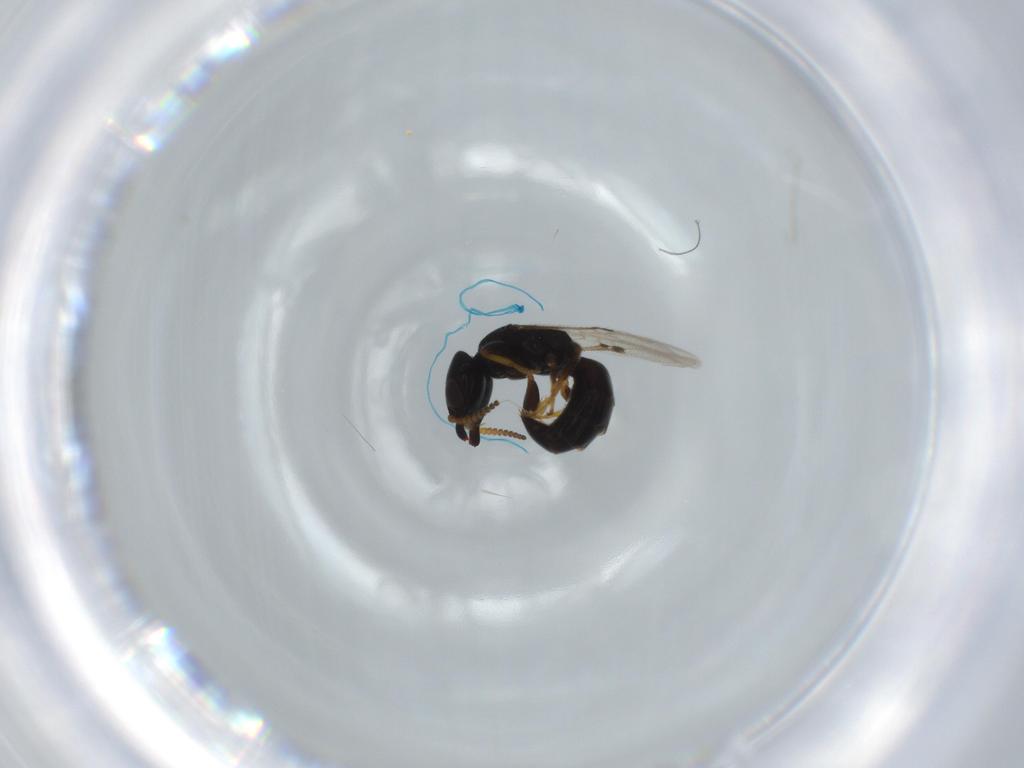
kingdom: Animalia
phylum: Arthropoda
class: Insecta
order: Hymenoptera
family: Bethylidae
